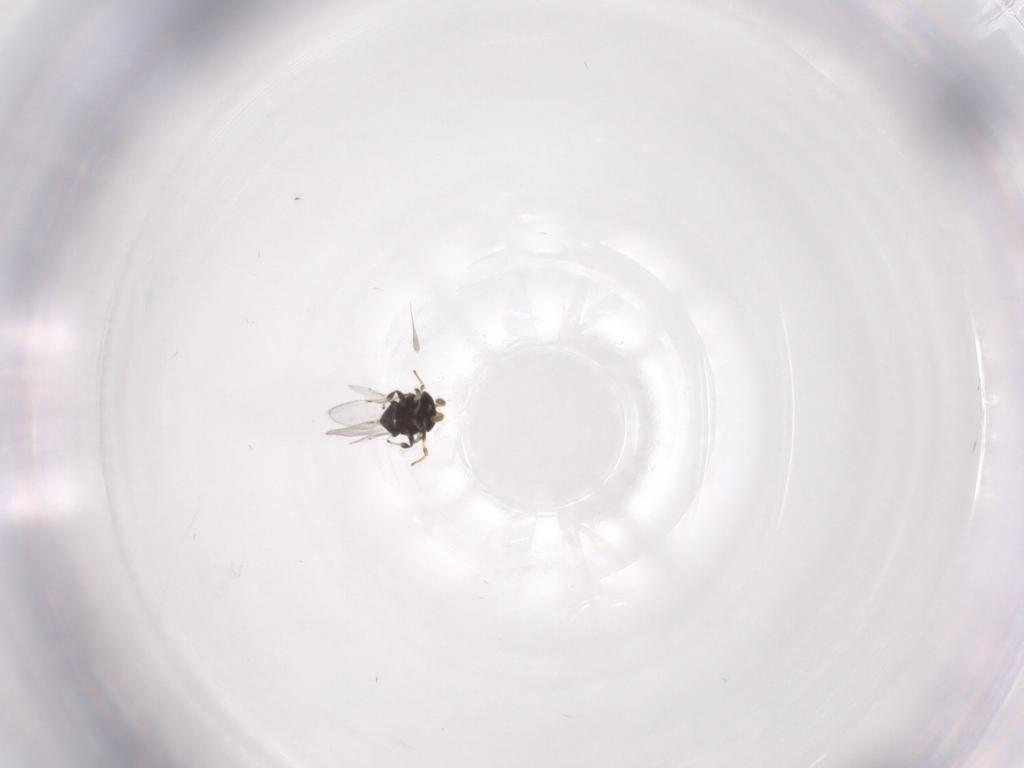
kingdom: Animalia
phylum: Arthropoda
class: Insecta
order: Hymenoptera
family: Encyrtidae
